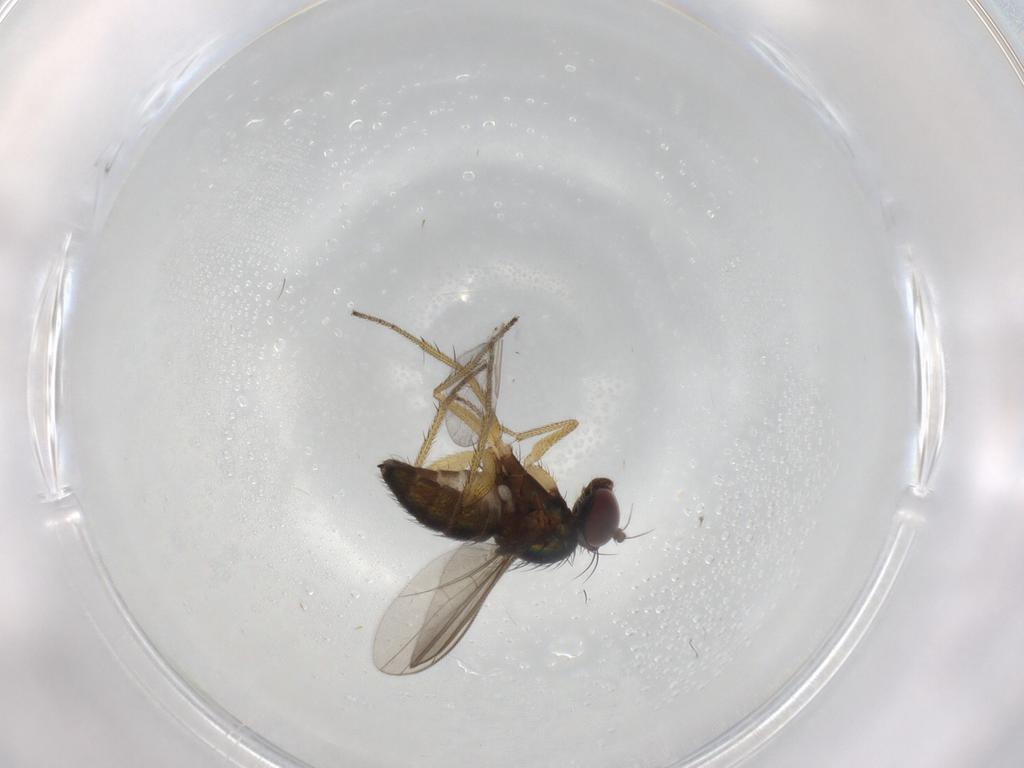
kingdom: Animalia
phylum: Arthropoda
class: Insecta
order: Diptera
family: Dolichopodidae
